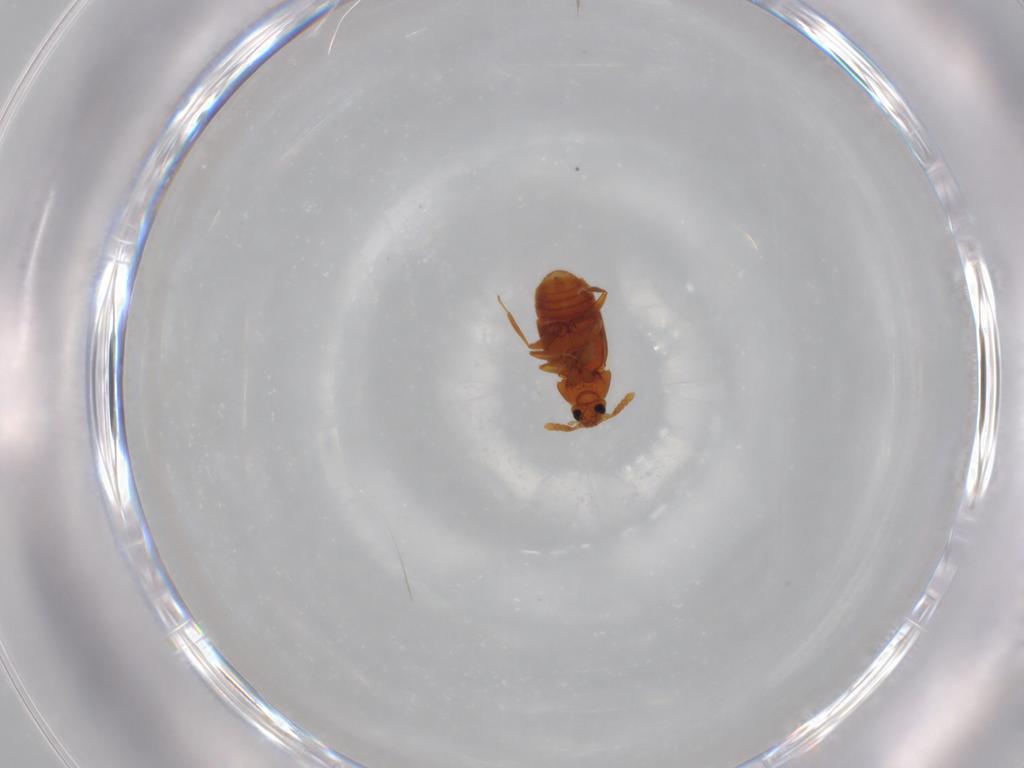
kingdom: Animalia
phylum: Arthropoda
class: Insecta
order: Coleoptera
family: Staphylinidae
